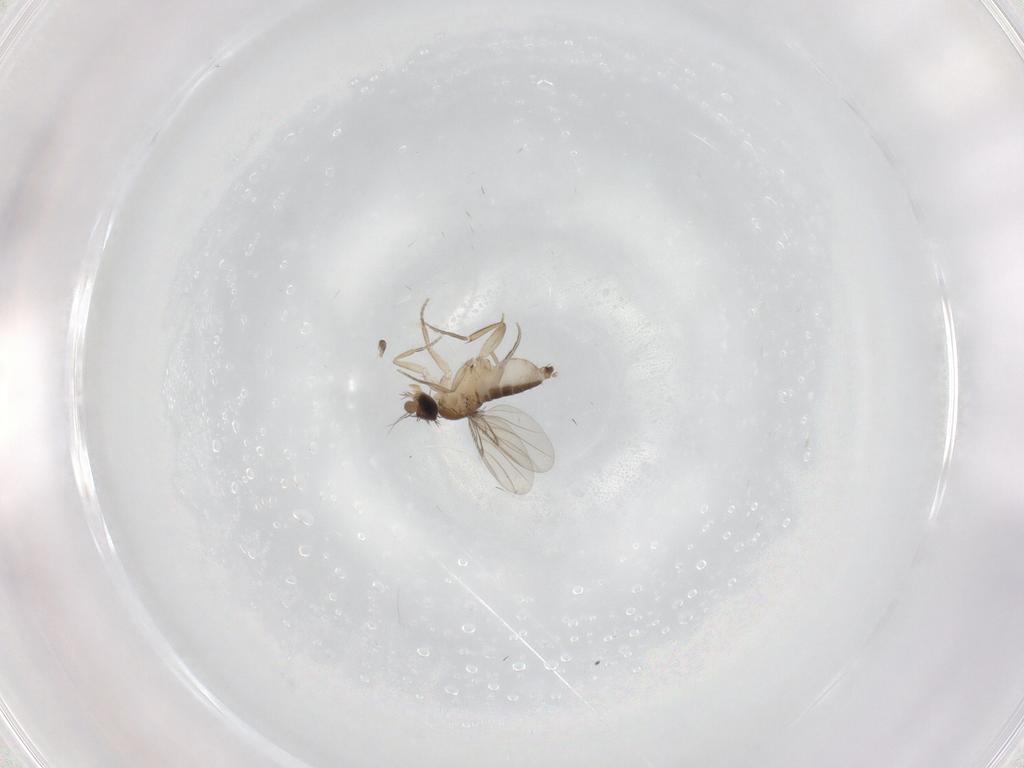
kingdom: Animalia
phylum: Arthropoda
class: Insecta
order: Diptera
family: Phoridae
